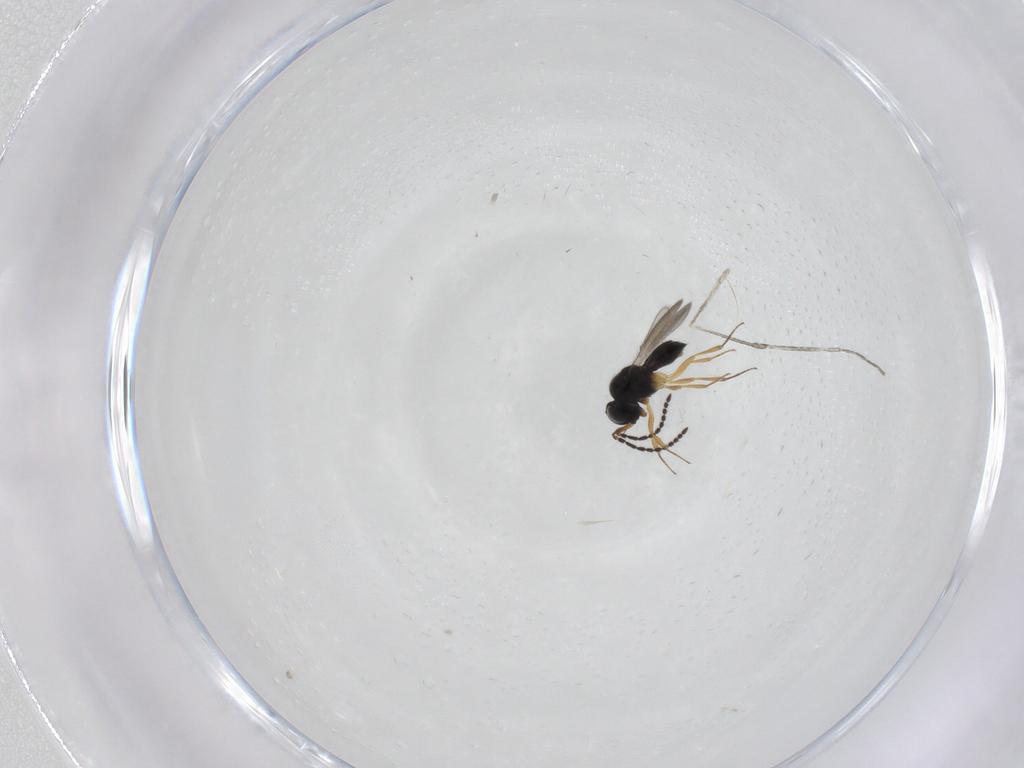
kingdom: Animalia
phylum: Arthropoda
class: Insecta
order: Hymenoptera
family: Scelionidae
